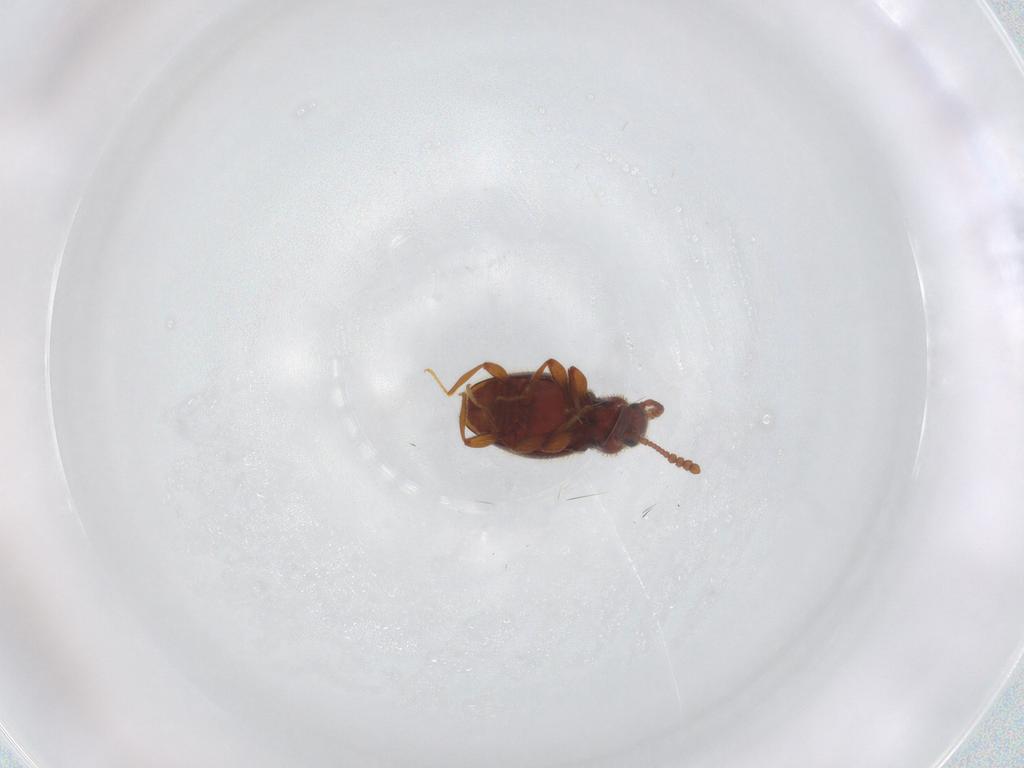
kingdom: Animalia
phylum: Arthropoda
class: Insecta
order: Coleoptera
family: Staphylinidae
